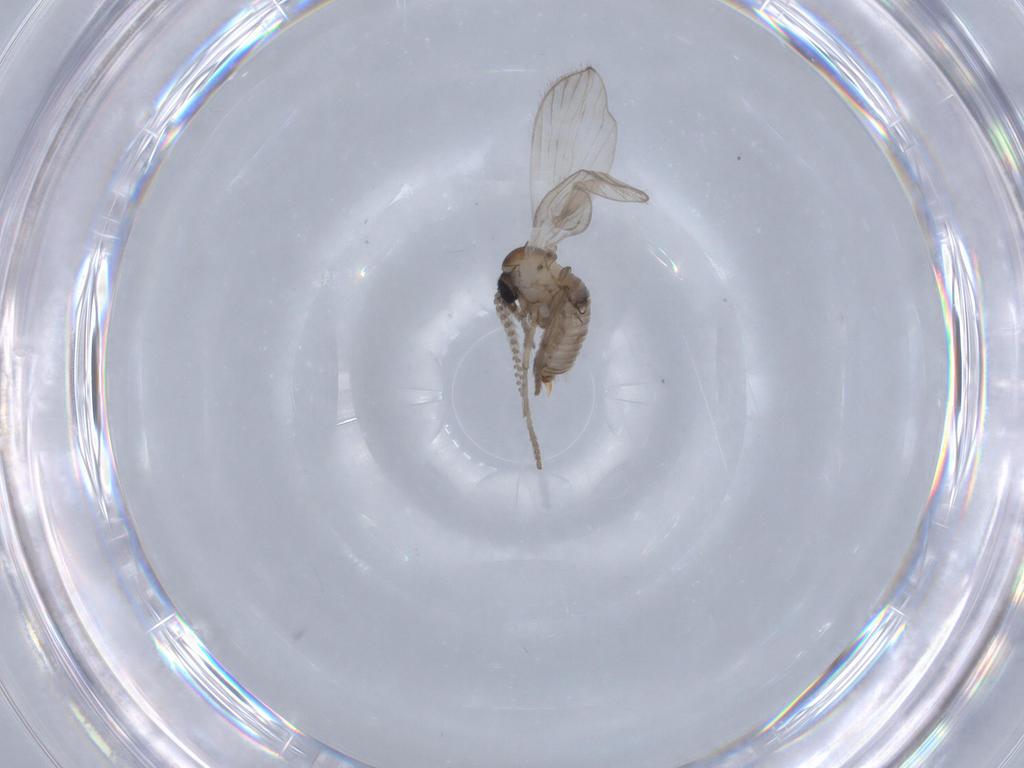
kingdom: Animalia
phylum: Arthropoda
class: Insecta
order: Diptera
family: Psychodidae
